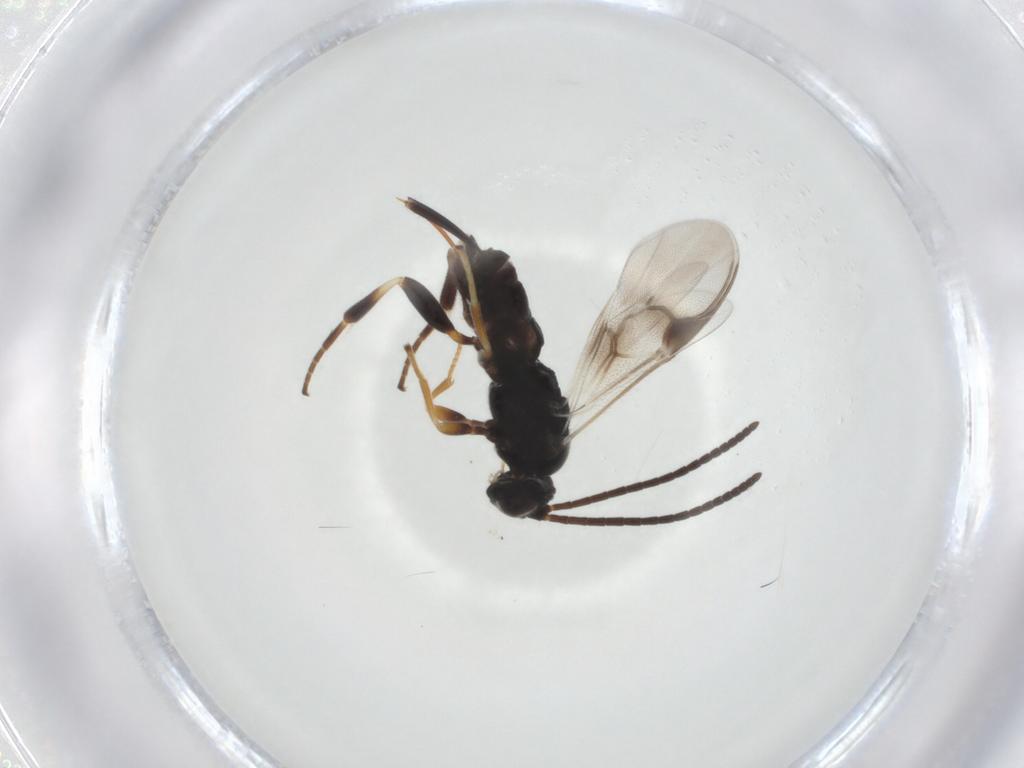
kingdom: Animalia
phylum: Arthropoda
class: Insecta
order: Hymenoptera
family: Braconidae
